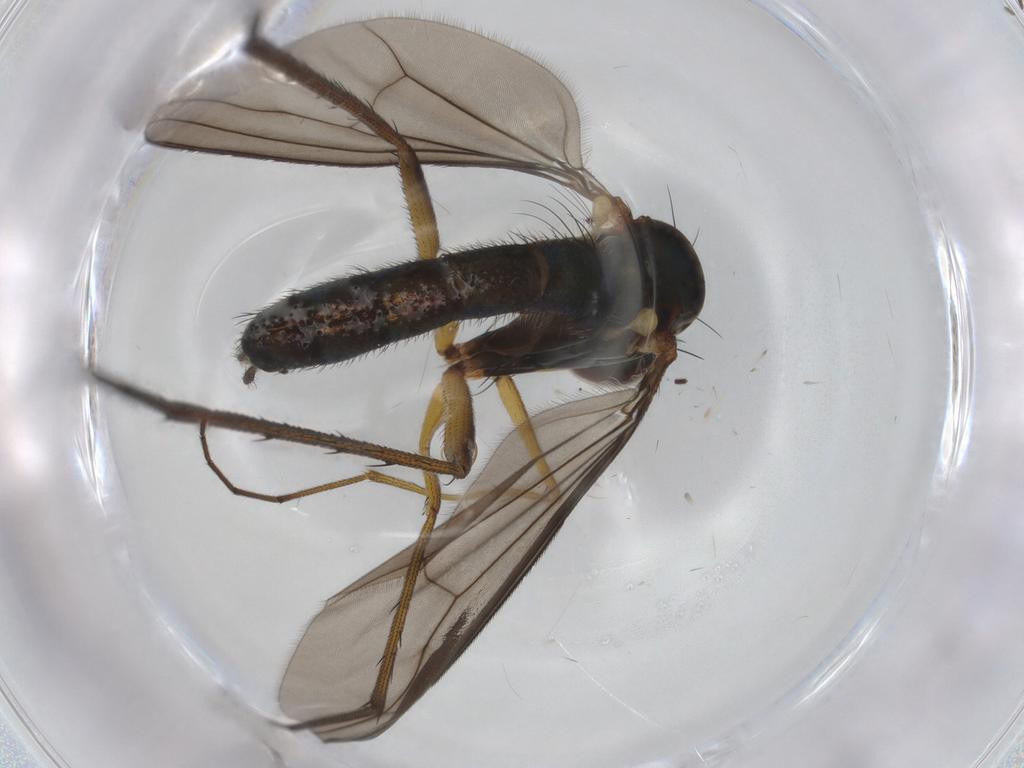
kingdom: Animalia
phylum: Arthropoda
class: Insecta
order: Diptera
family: Dolichopodidae
